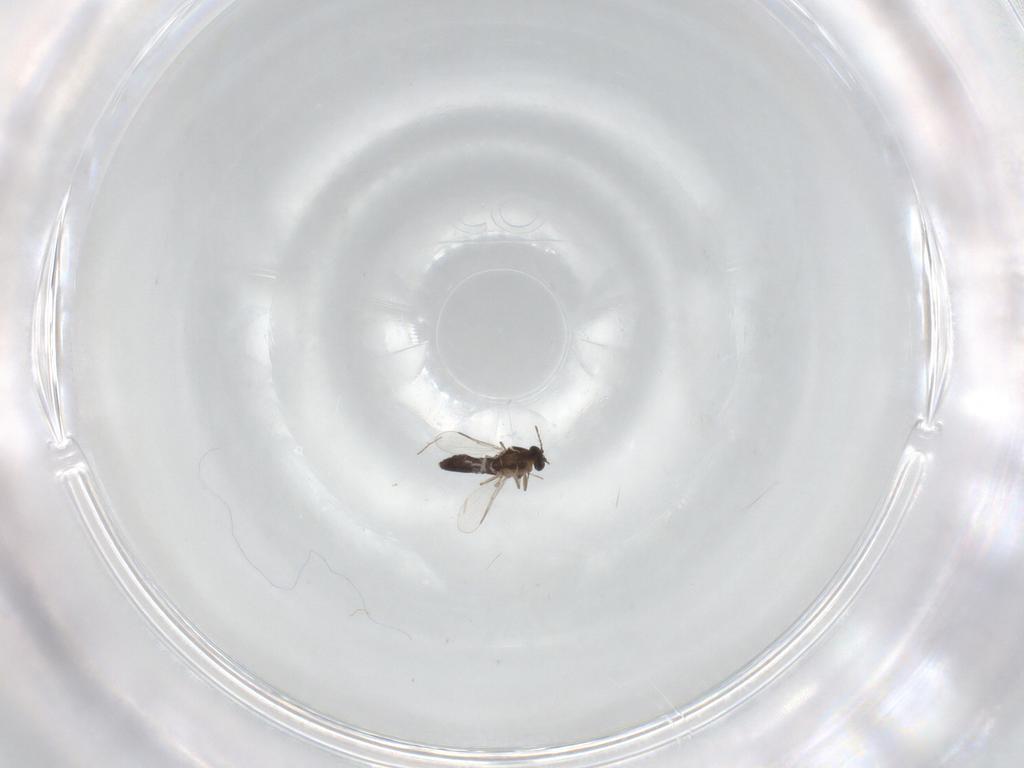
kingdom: Animalia
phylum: Arthropoda
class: Insecta
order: Diptera
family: Chironomidae
